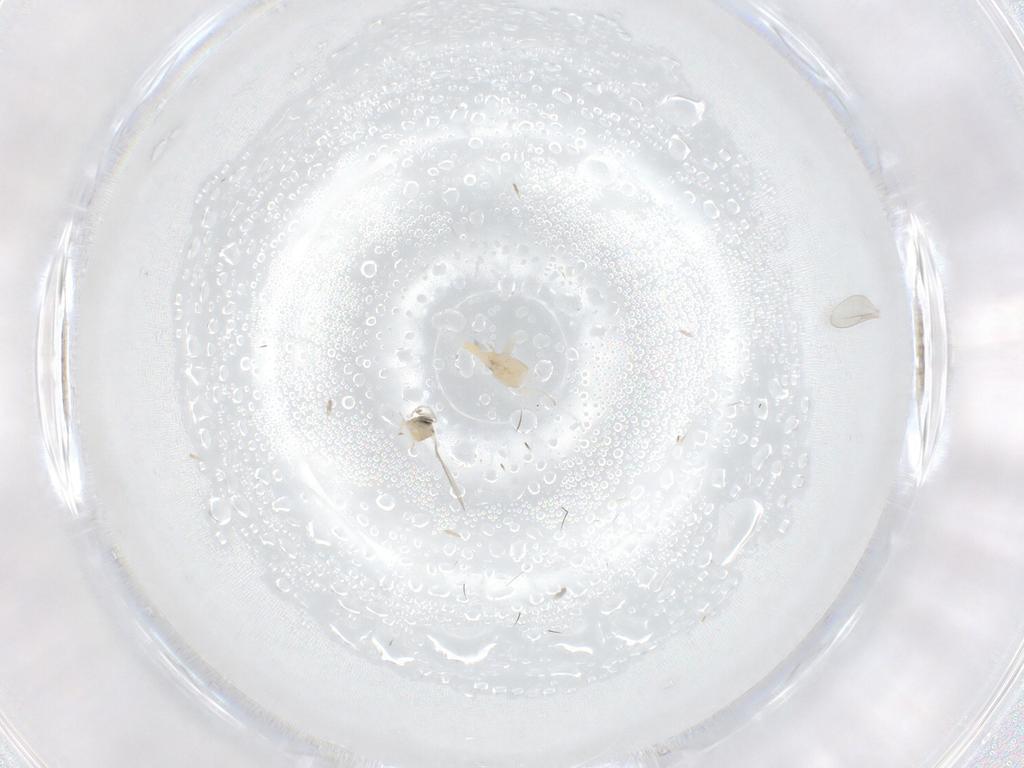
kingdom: Animalia
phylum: Arthropoda
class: Insecta
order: Diptera
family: Cecidomyiidae
